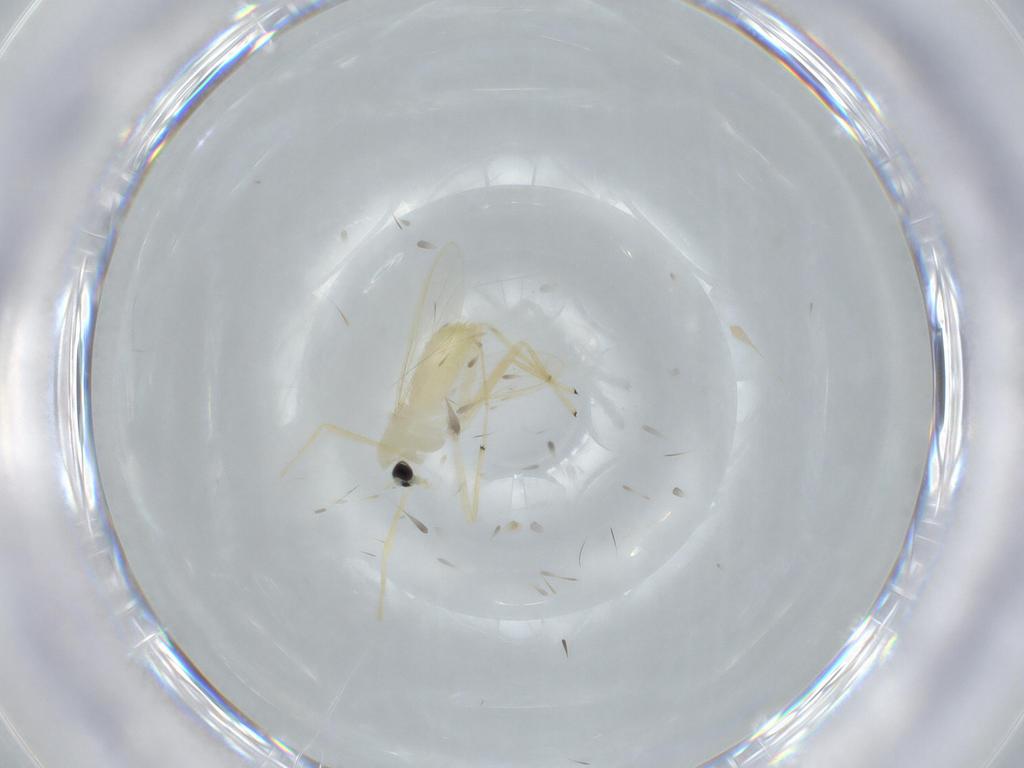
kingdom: Animalia
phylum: Arthropoda
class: Insecta
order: Diptera
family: Chironomidae
